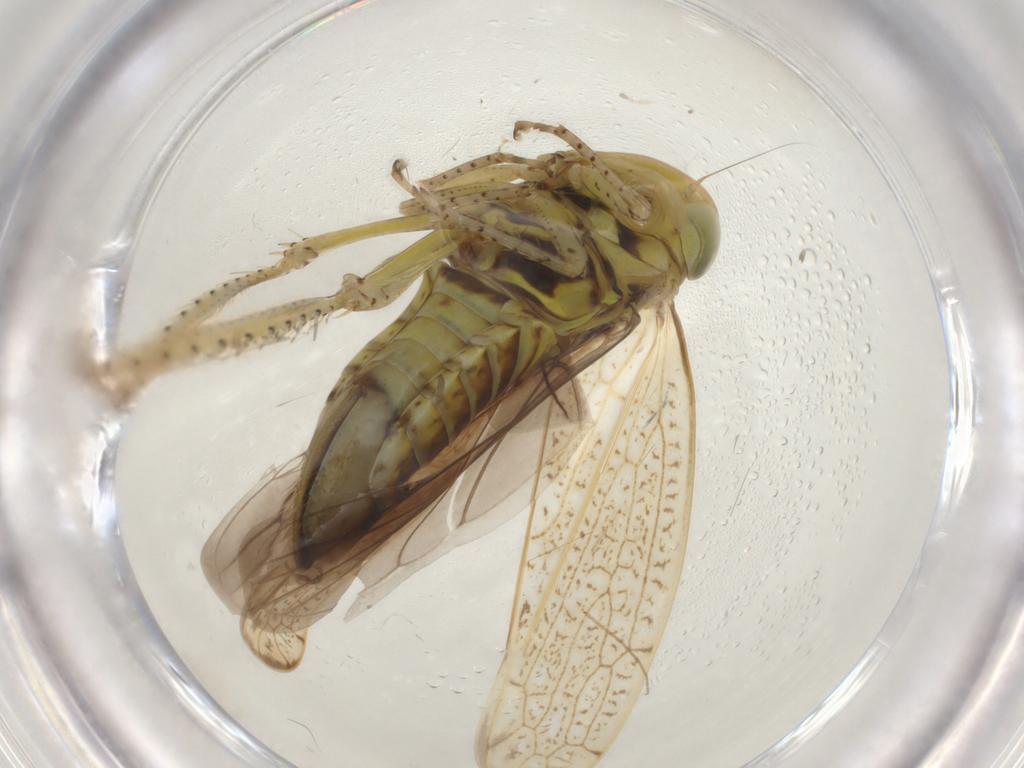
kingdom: Animalia
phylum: Arthropoda
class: Insecta
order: Hemiptera
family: Cicadellidae
